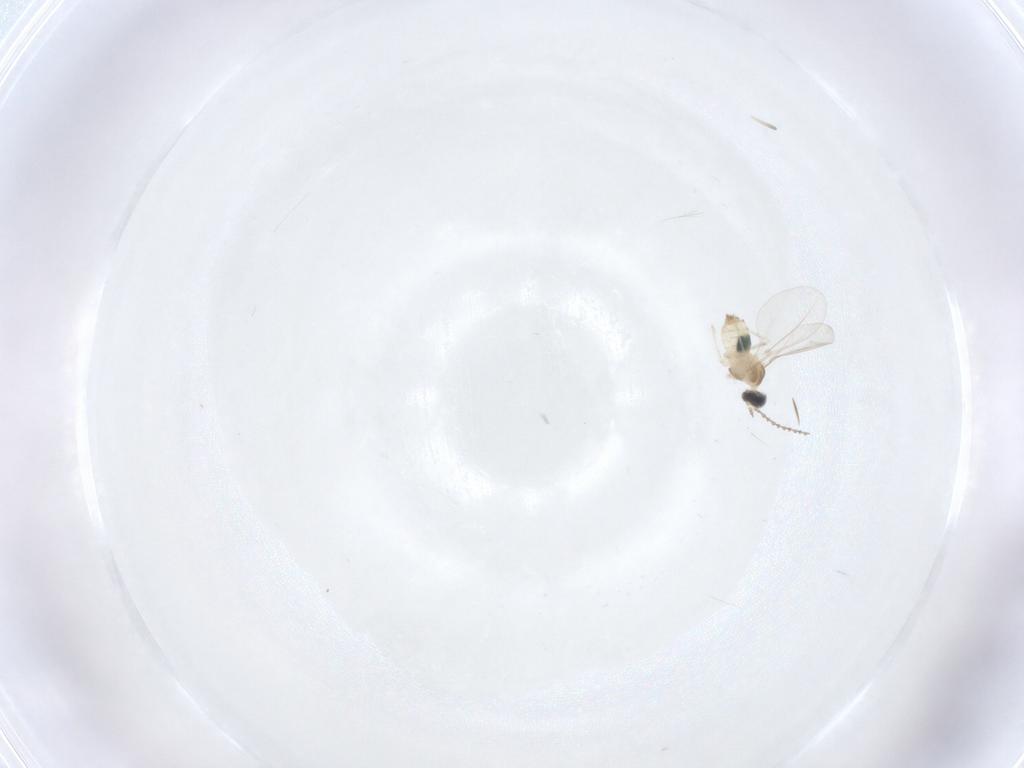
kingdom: Animalia
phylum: Arthropoda
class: Insecta
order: Diptera
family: Cecidomyiidae
